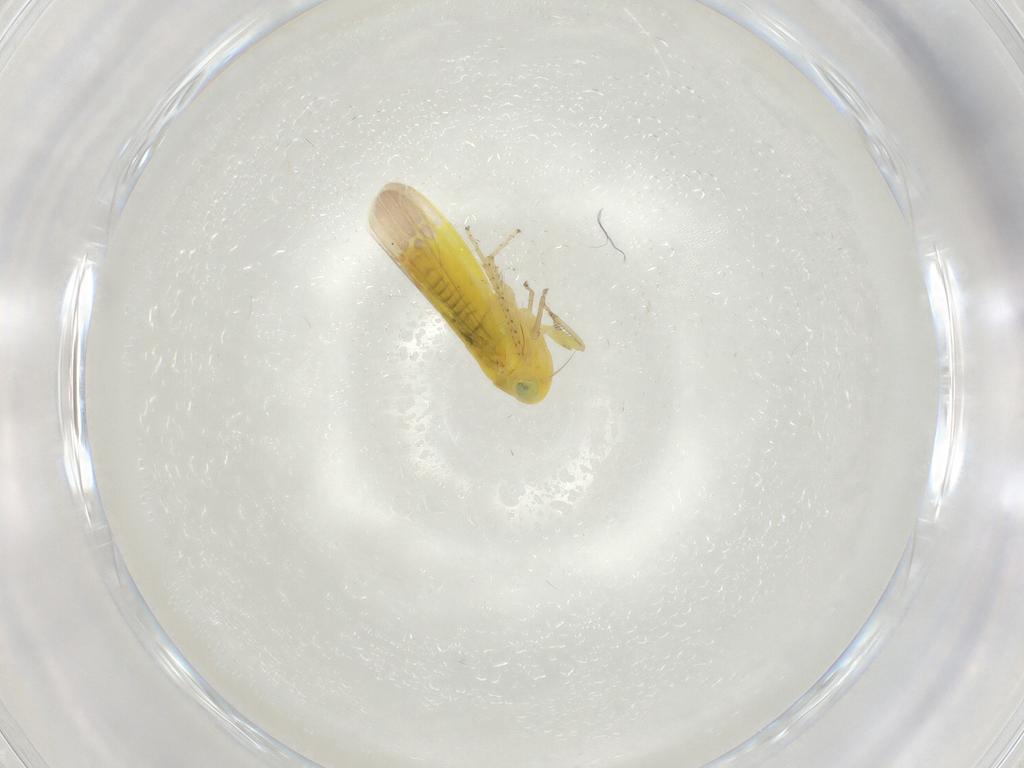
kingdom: Animalia
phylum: Arthropoda
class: Insecta
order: Hemiptera
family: Cicadellidae
